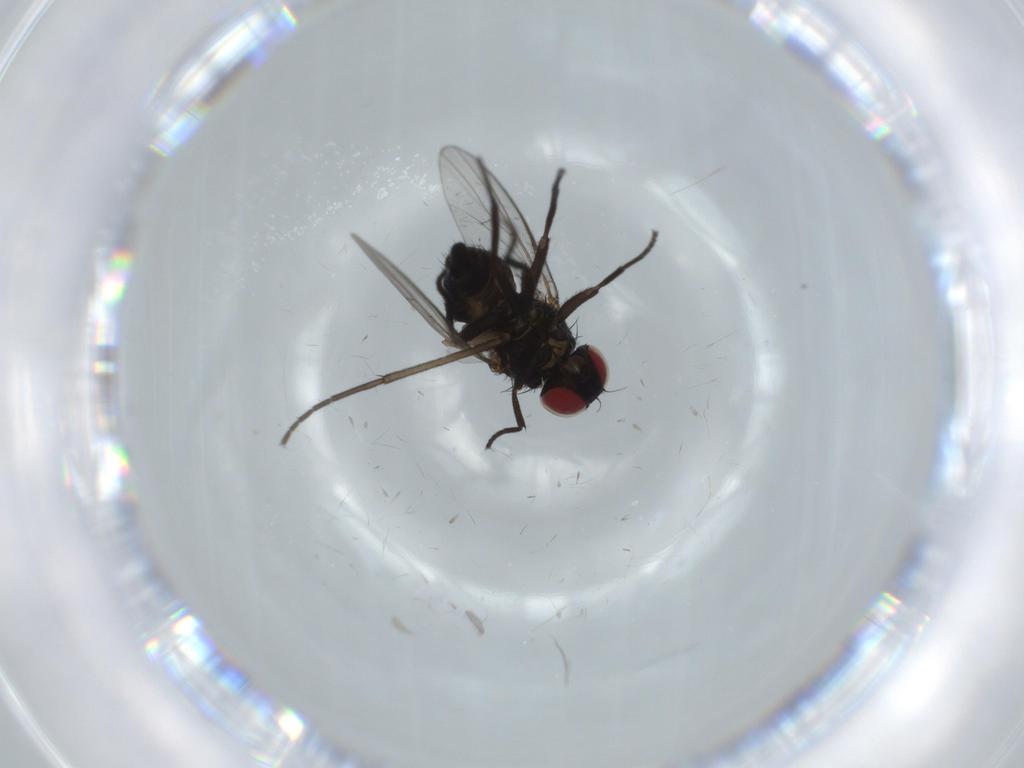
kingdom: Animalia
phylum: Arthropoda
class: Insecta
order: Diptera
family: Agromyzidae
